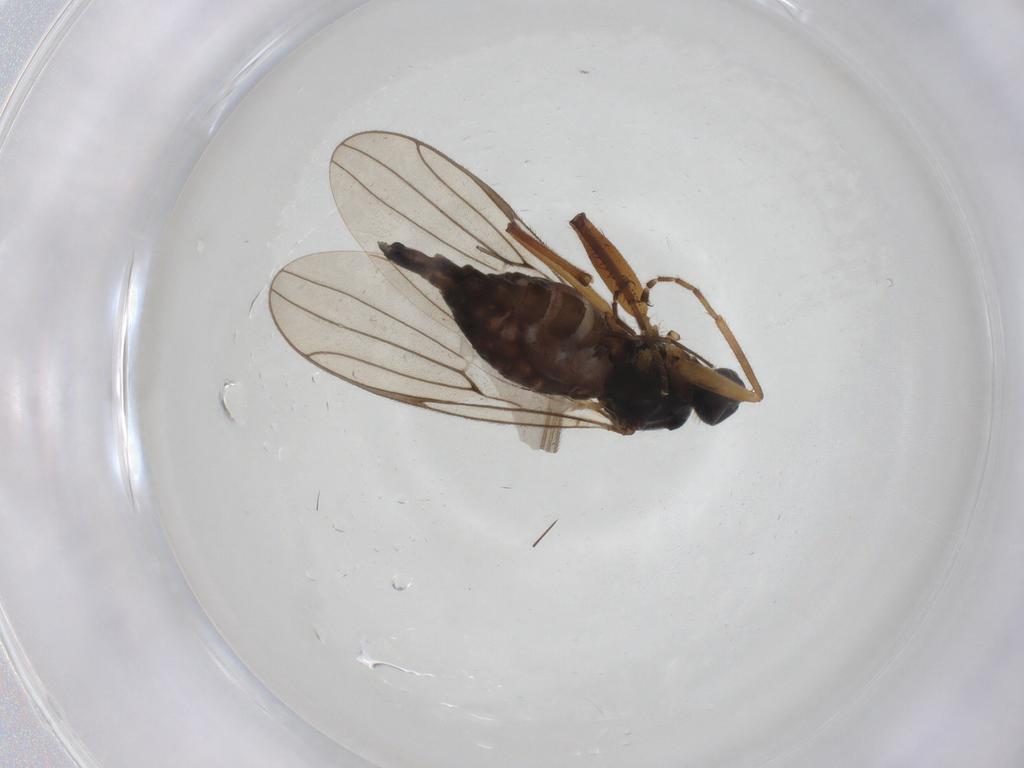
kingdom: Animalia
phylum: Arthropoda
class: Insecta
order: Diptera
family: Hybotidae
